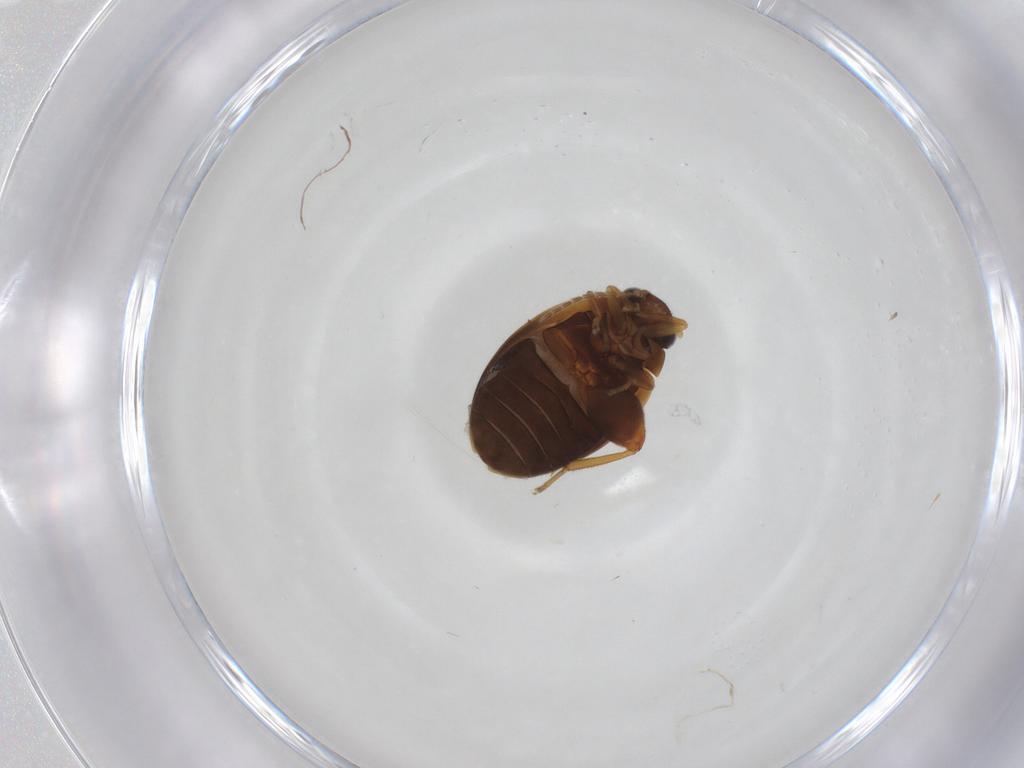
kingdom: Animalia
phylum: Arthropoda
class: Insecta
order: Coleoptera
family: Phalacridae
